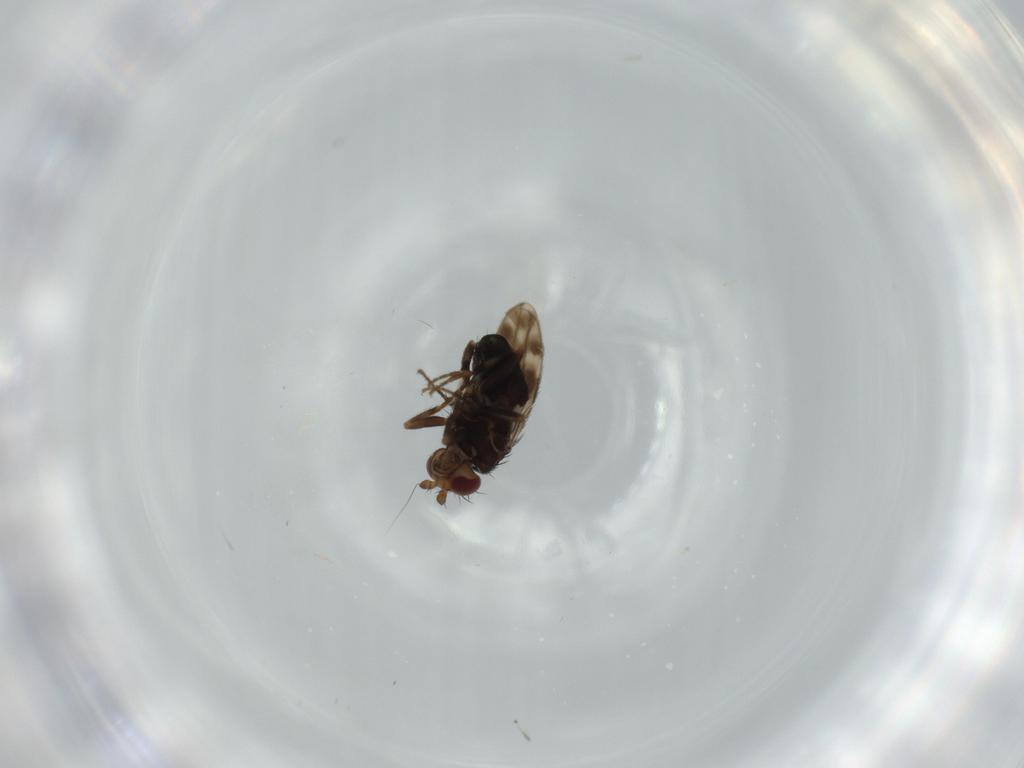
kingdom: Animalia
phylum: Arthropoda
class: Insecta
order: Diptera
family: Sphaeroceridae
